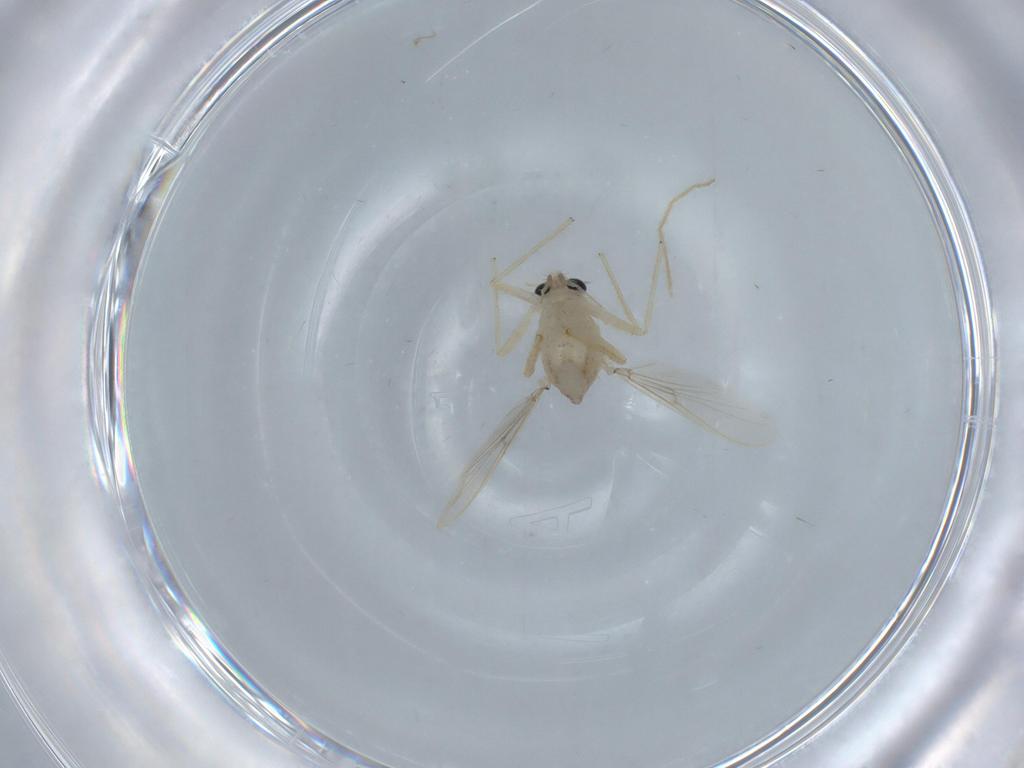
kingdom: Animalia
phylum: Arthropoda
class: Insecta
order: Diptera
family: Chironomidae
